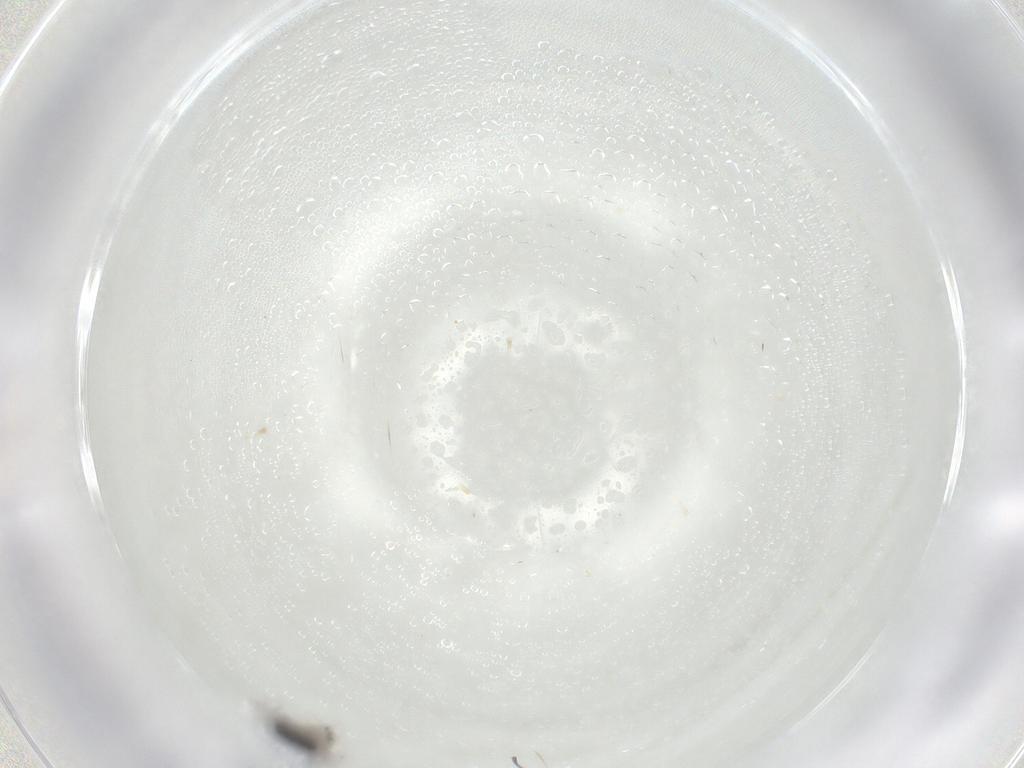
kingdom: Animalia
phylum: Arthropoda
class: Insecta
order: Diptera
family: Scatopsidae
